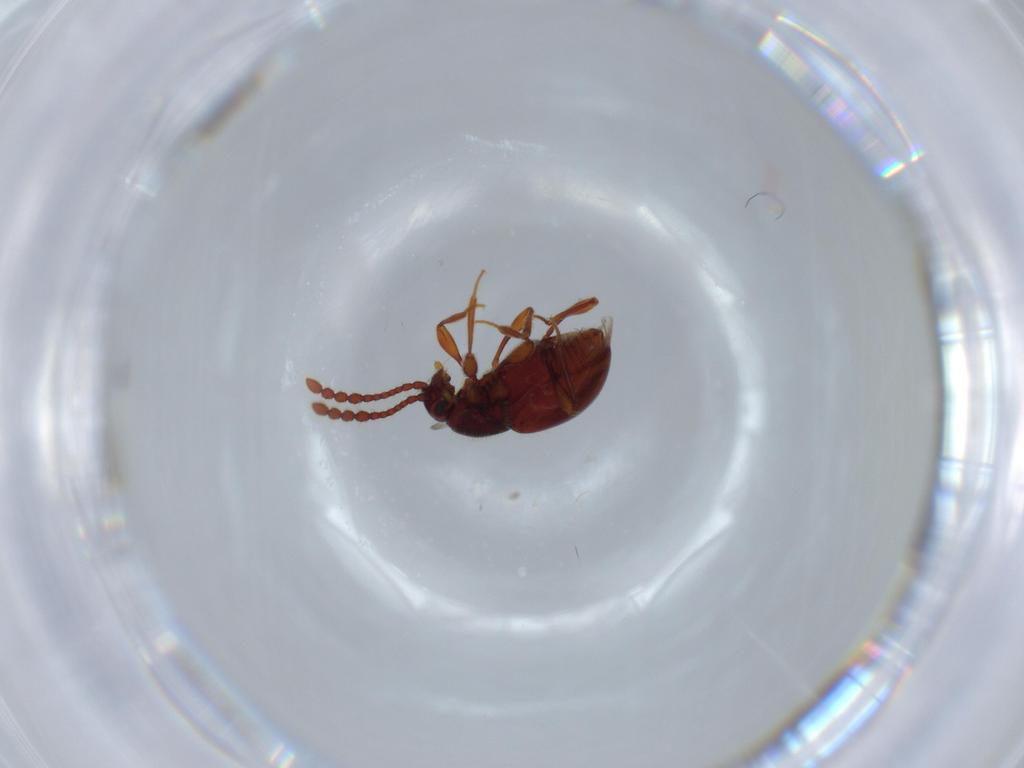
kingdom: Animalia
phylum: Arthropoda
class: Insecta
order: Coleoptera
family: Staphylinidae
